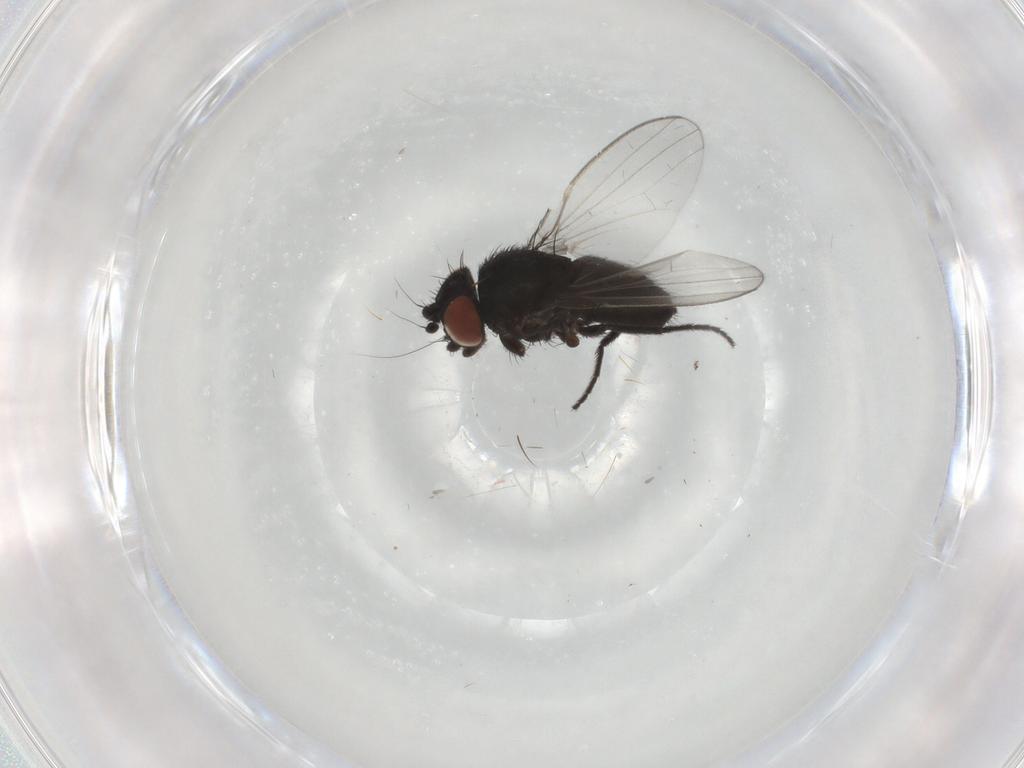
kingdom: Animalia
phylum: Arthropoda
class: Insecta
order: Diptera
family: Milichiidae
